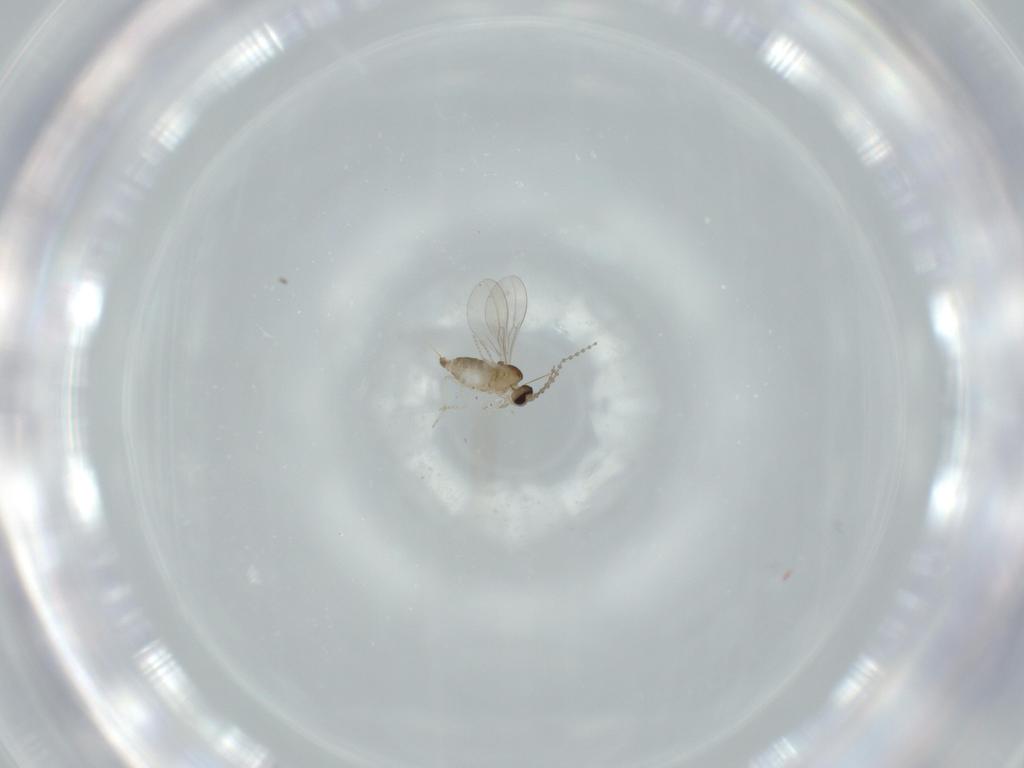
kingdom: Animalia
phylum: Arthropoda
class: Insecta
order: Diptera
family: Cecidomyiidae
